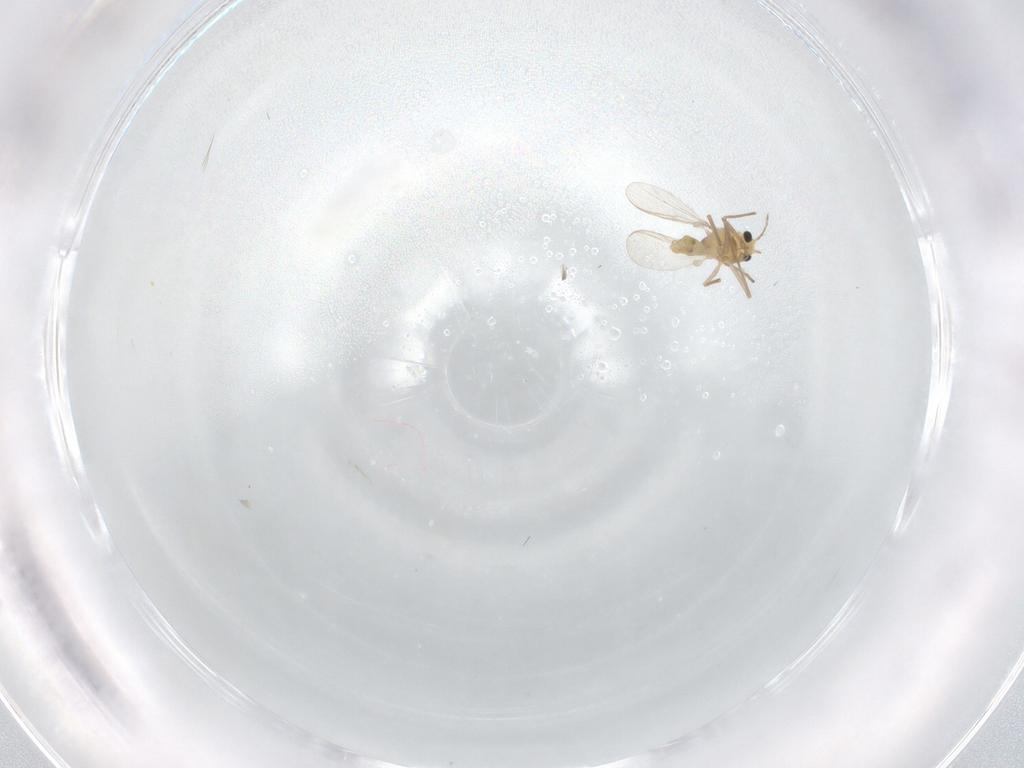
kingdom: Animalia
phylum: Arthropoda
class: Insecta
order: Diptera
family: Chironomidae
